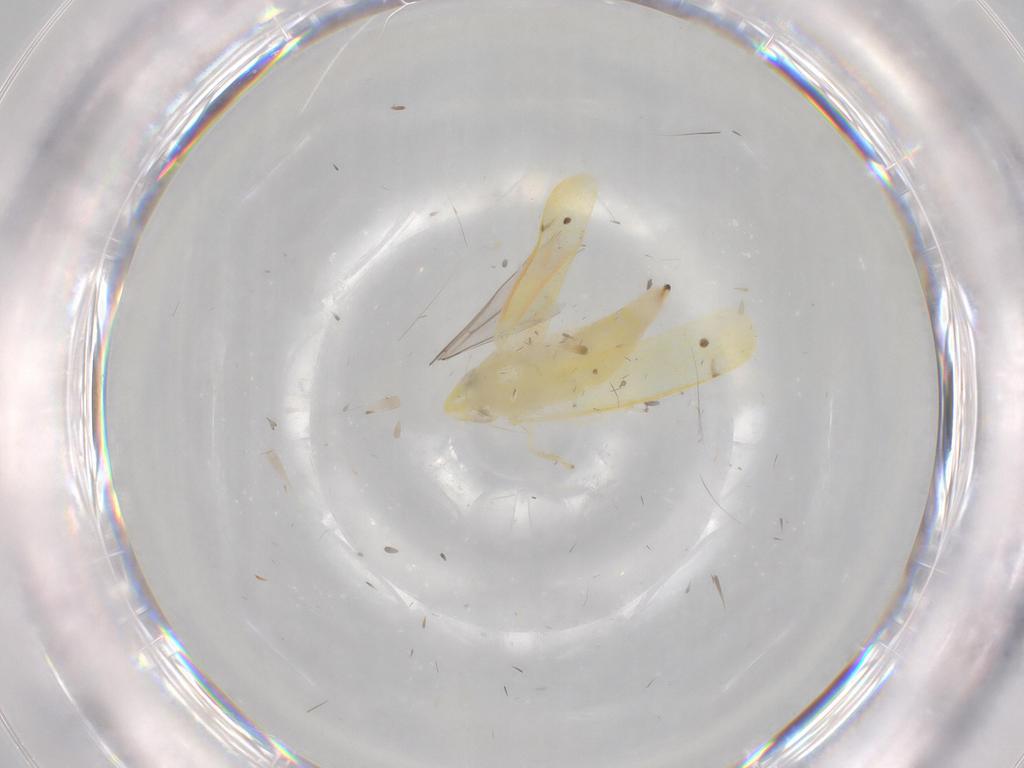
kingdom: Animalia
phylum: Arthropoda
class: Insecta
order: Hemiptera
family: Cicadellidae
